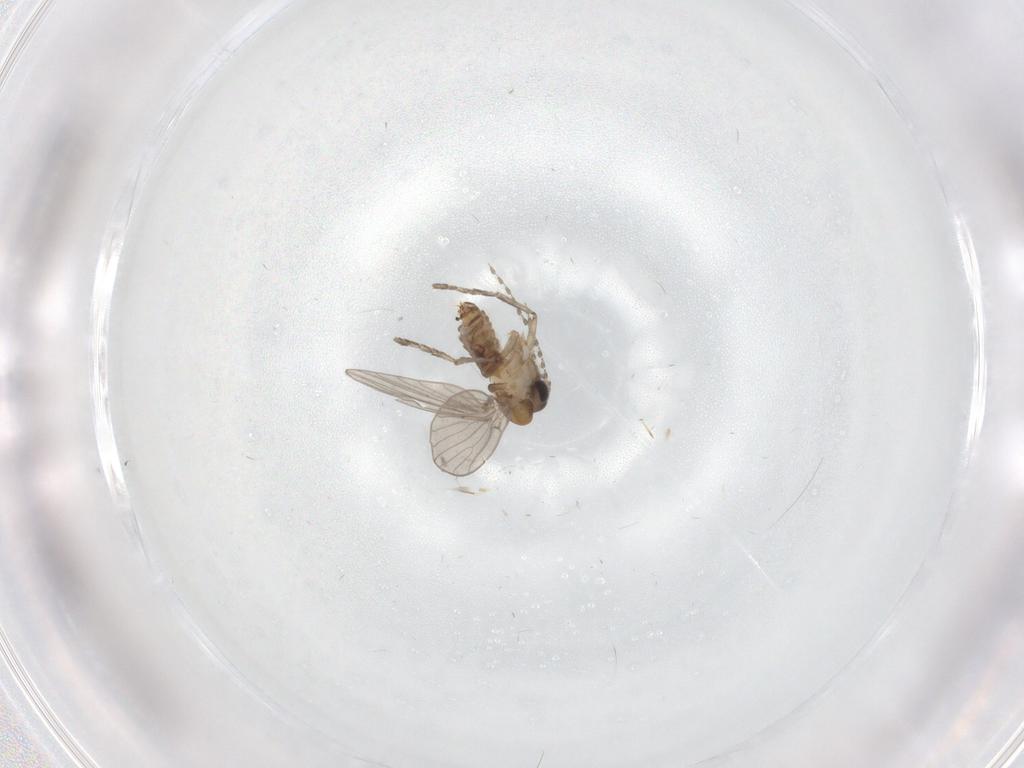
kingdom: Animalia
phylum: Arthropoda
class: Insecta
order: Diptera
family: Psychodidae
